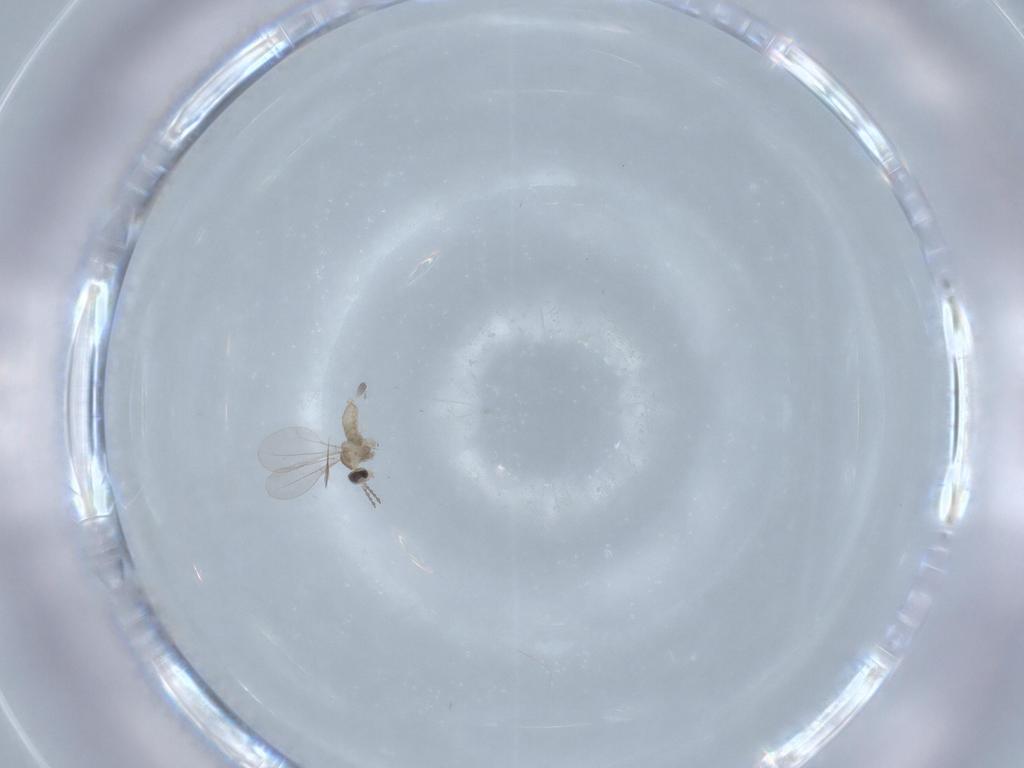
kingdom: Animalia
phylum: Arthropoda
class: Insecta
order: Diptera
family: Cecidomyiidae
